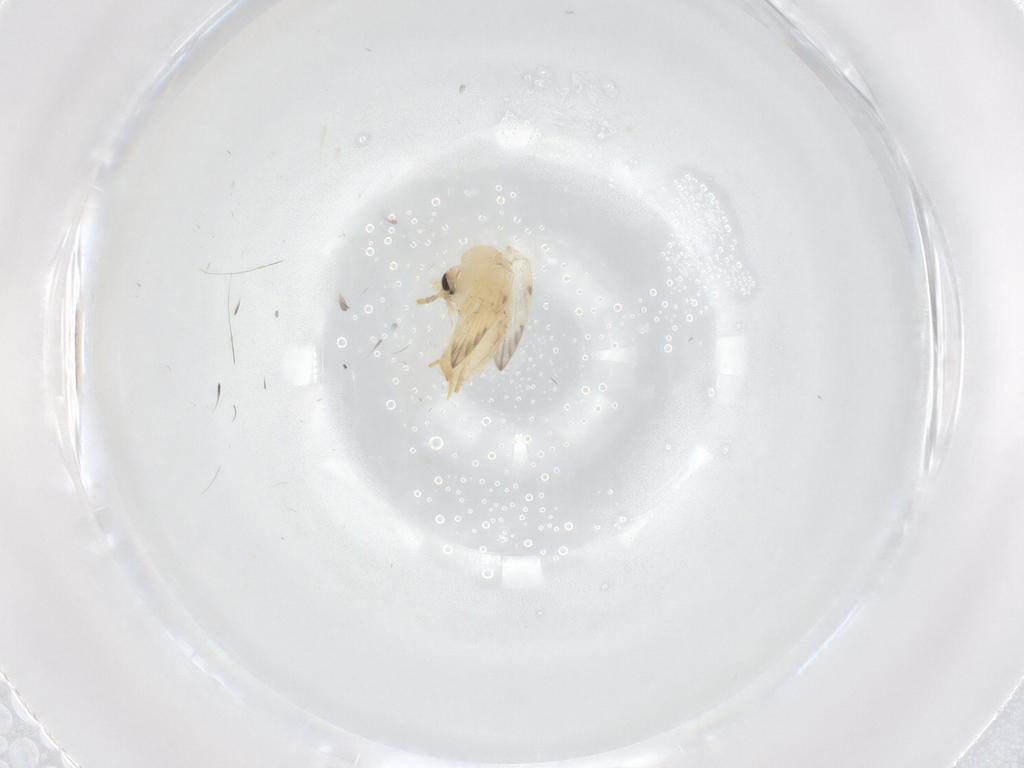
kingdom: Animalia
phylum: Arthropoda
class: Insecta
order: Diptera
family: Psychodidae
